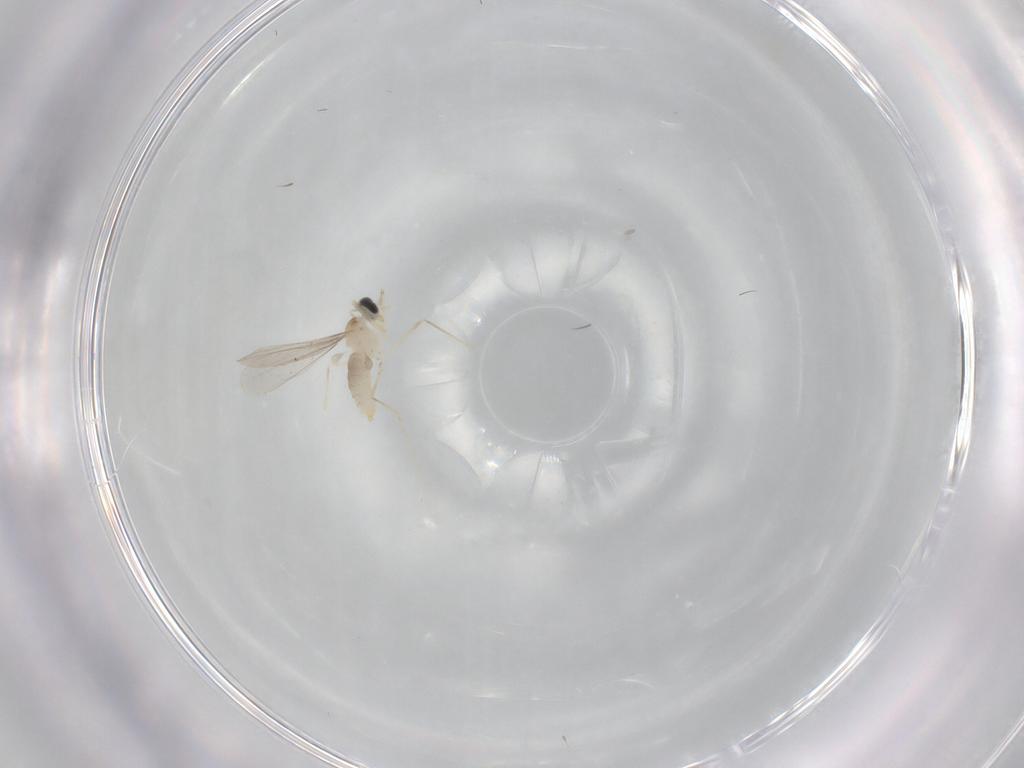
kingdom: Animalia
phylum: Arthropoda
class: Insecta
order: Diptera
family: Cecidomyiidae
